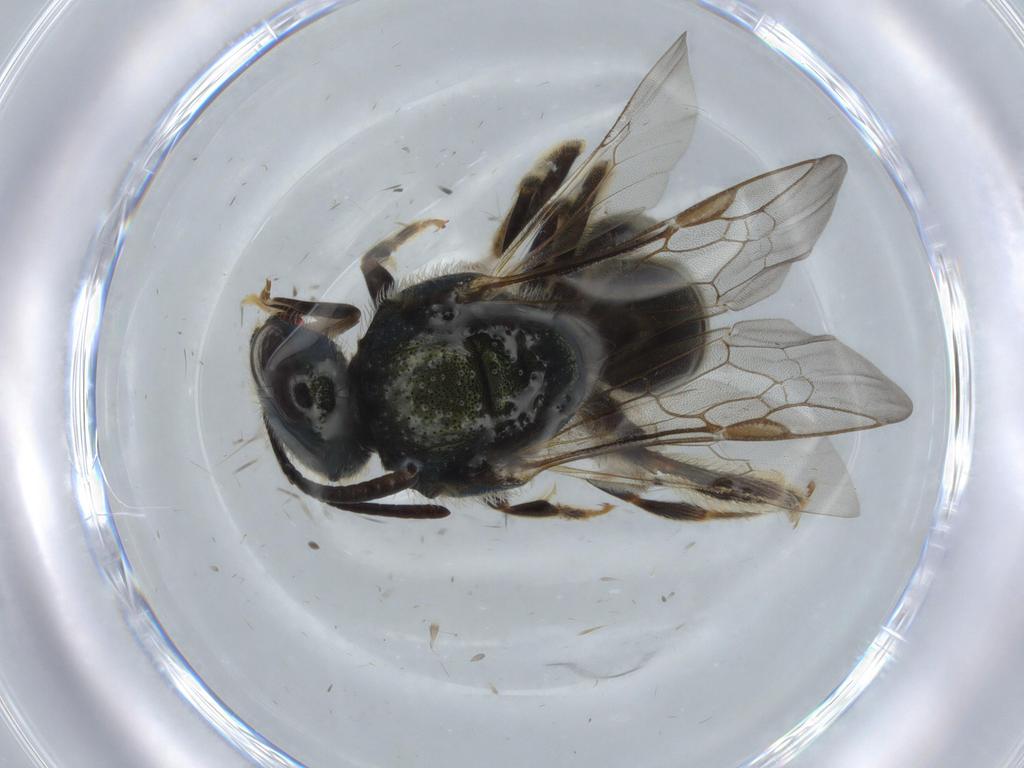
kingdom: Animalia
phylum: Arthropoda
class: Insecta
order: Hymenoptera
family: Halictidae
